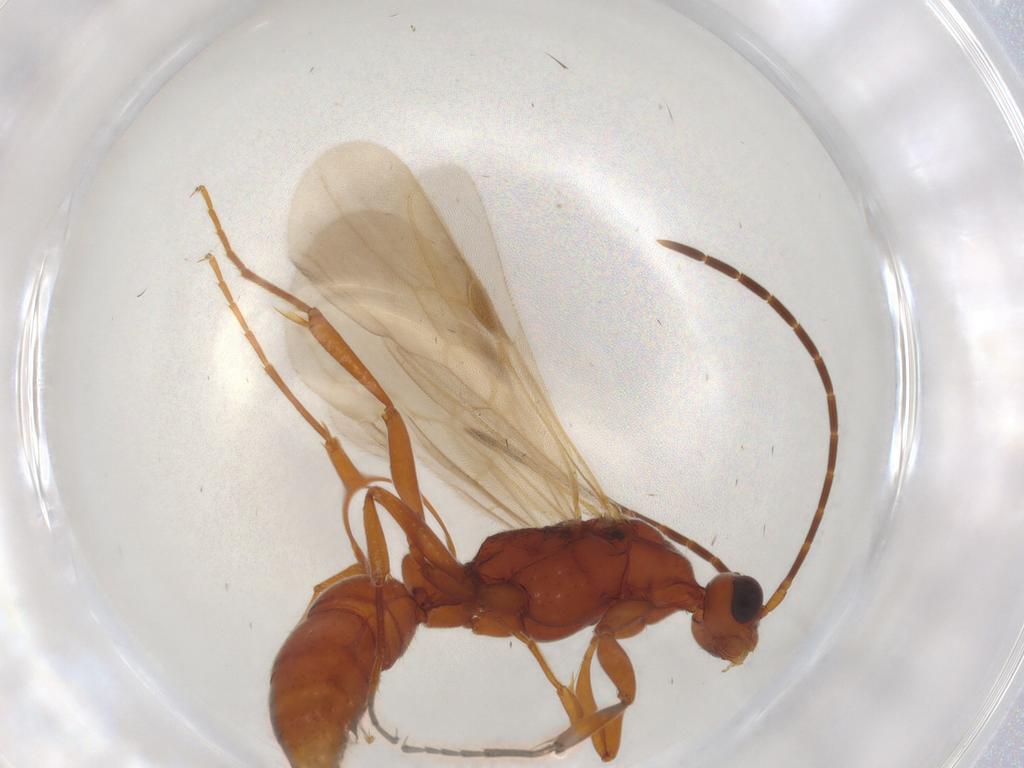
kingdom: Animalia
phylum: Arthropoda
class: Insecta
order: Hymenoptera
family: Formicidae
